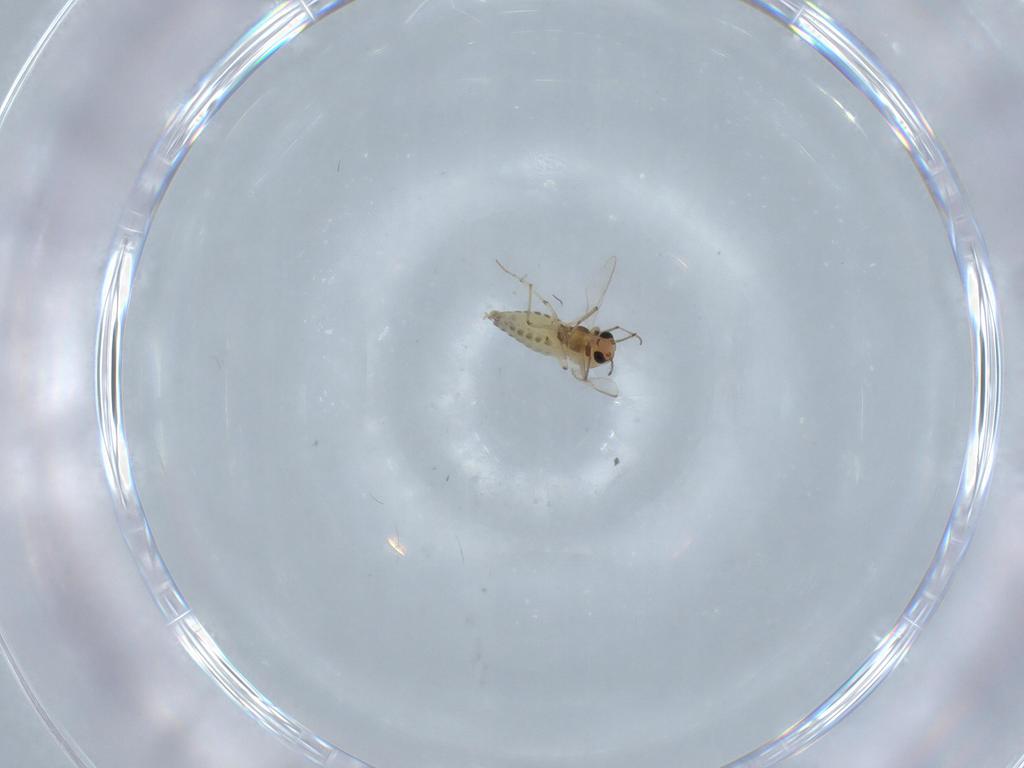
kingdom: Animalia
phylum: Arthropoda
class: Insecta
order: Diptera
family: Chironomidae
